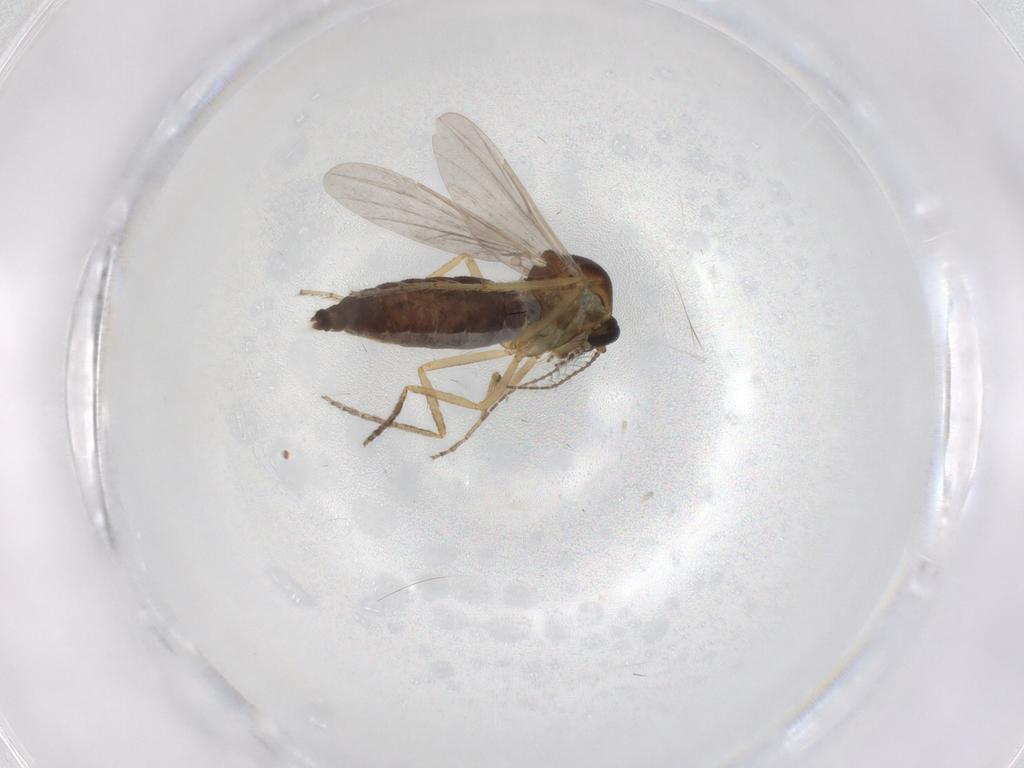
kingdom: Animalia
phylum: Arthropoda
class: Insecta
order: Diptera
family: Ceratopogonidae
